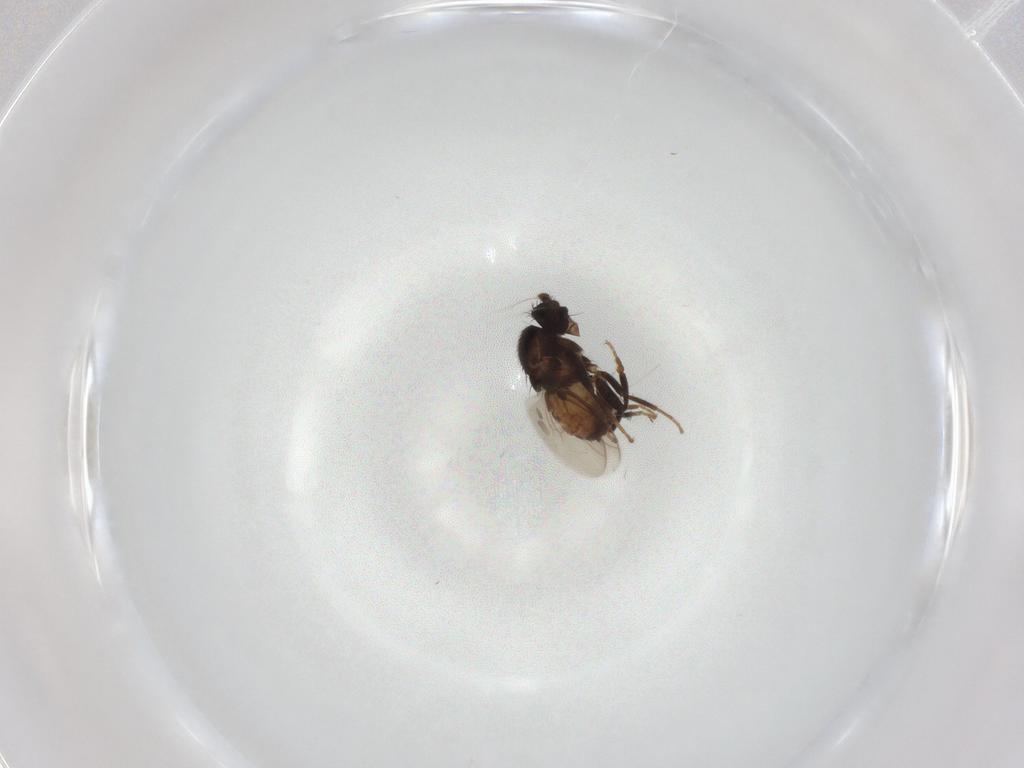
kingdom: Animalia
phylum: Arthropoda
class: Insecta
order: Diptera
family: Sphaeroceridae
